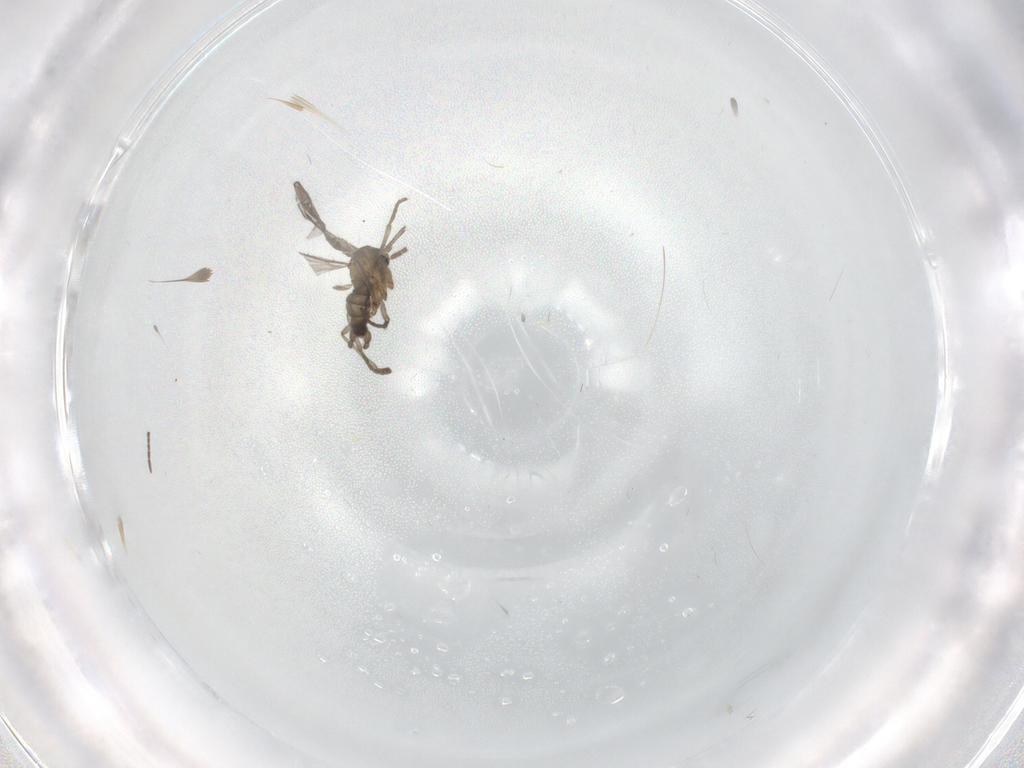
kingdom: Animalia
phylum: Arthropoda
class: Insecta
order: Diptera
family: Sciaridae
